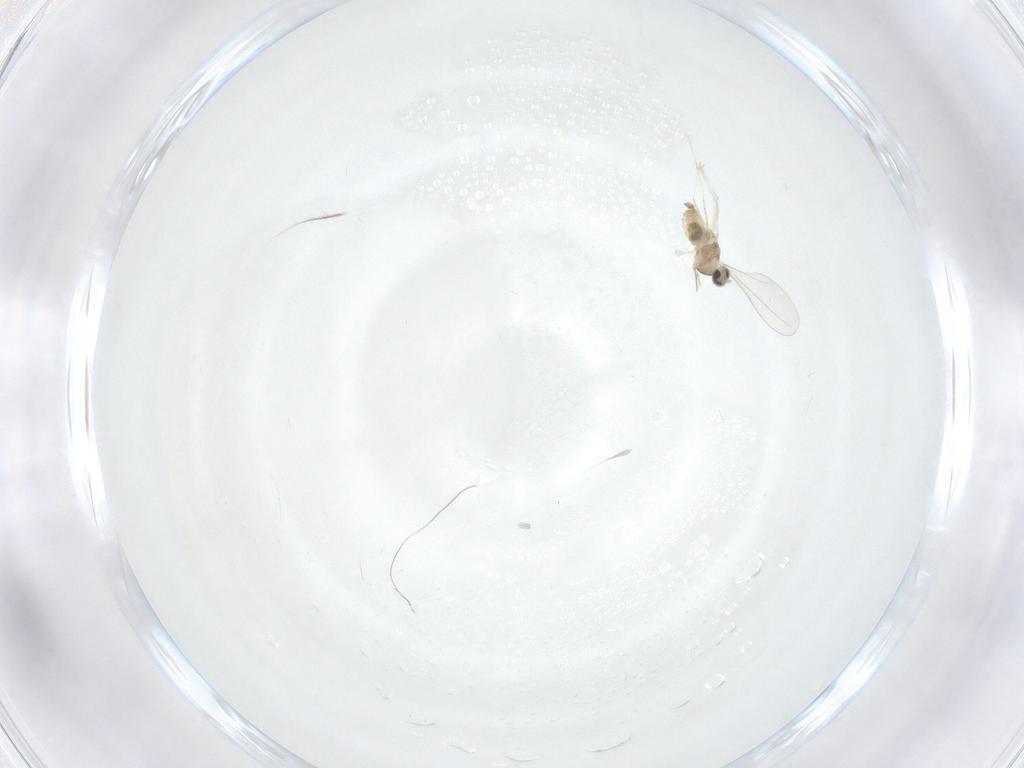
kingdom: Animalia
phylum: Arthropoda
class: Insecta
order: Diptera
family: Cecidomyiidae
